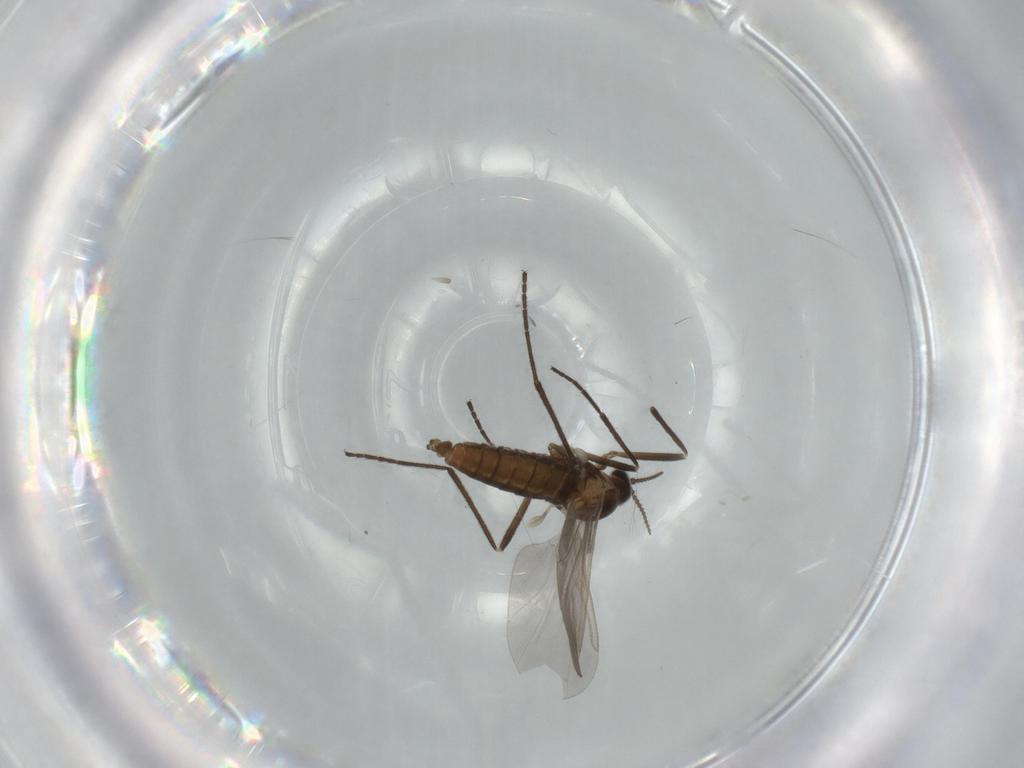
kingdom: Animalia
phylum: Arthropoda
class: Insecta
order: Diptera
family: Cecidomyiidae
